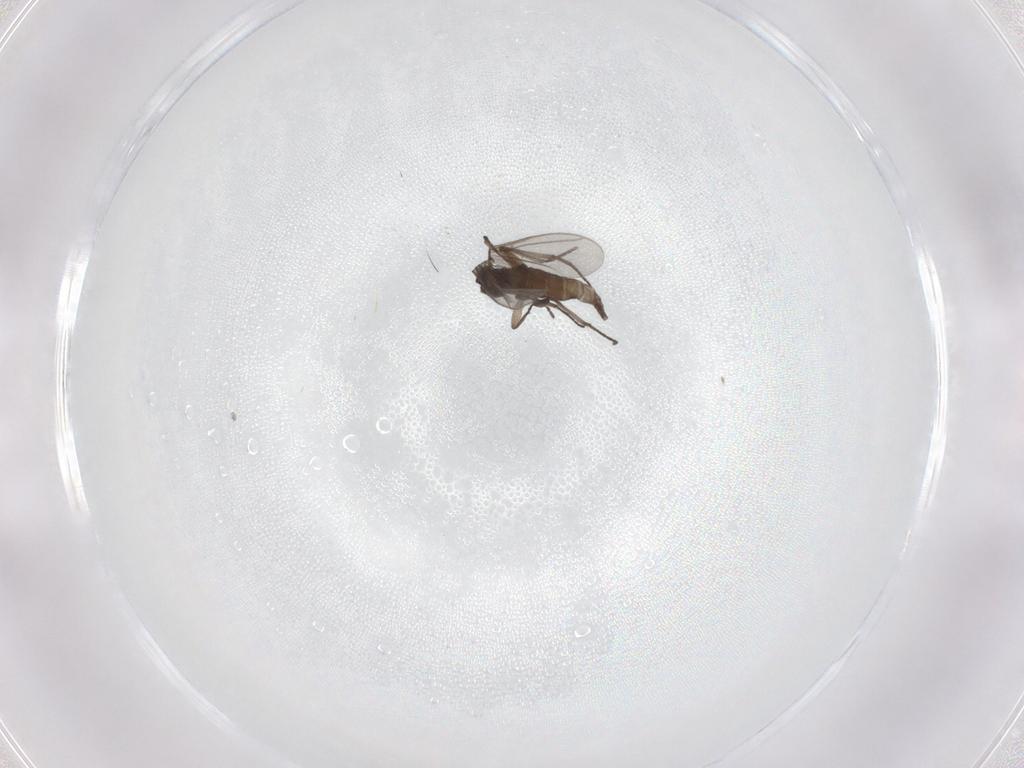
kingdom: Animalia
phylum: Arthropoda
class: Insecta
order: Diptera
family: Sciaridae
